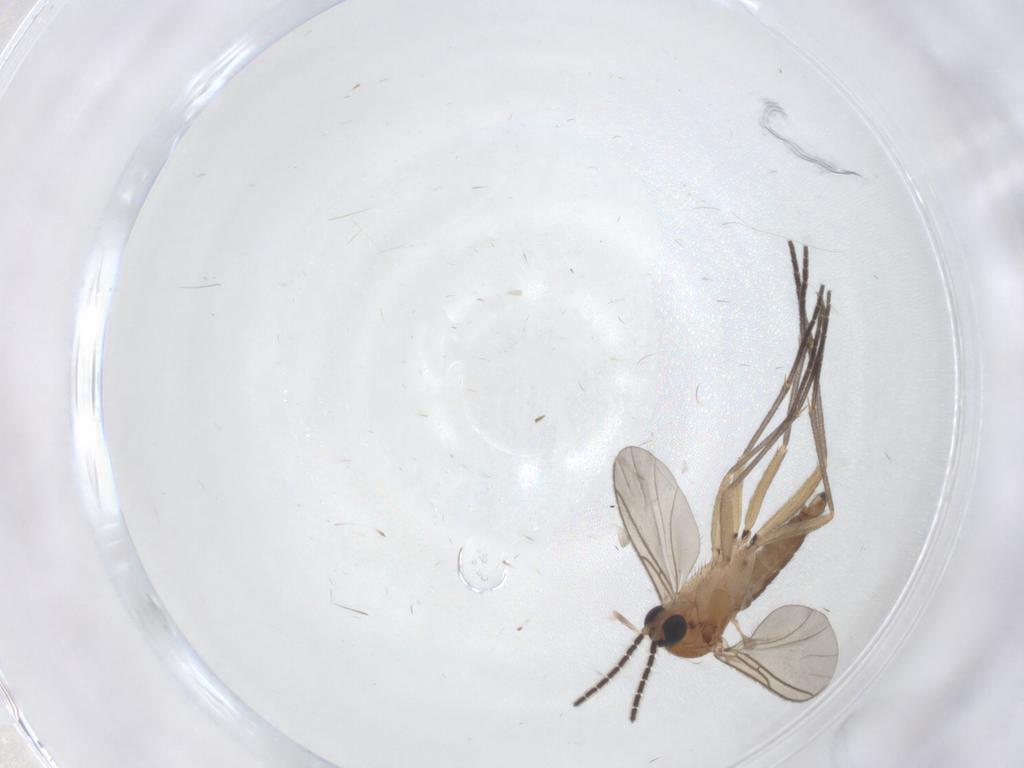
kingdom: Animalia
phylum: Arthropoda
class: Insecta
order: Diptera
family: Sciaridae
